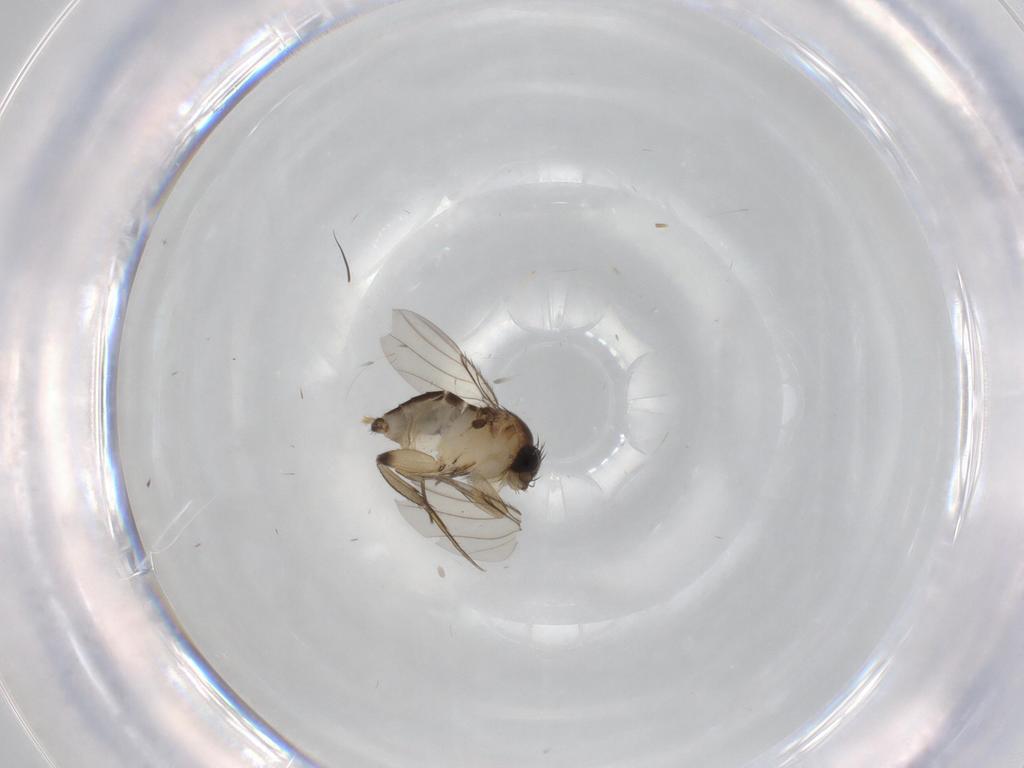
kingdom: Animalia
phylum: Arthropoda
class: Insecta
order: Diptera
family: Phoridae
